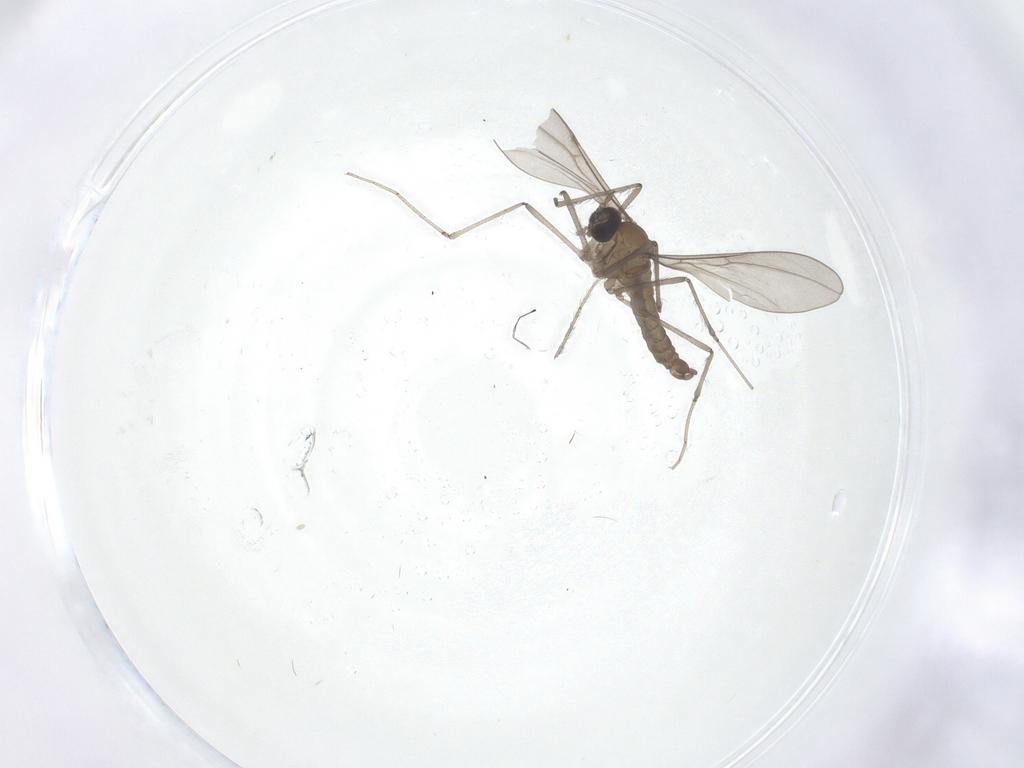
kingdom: Animalia
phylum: Arthropoda
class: Insecta
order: Diptera
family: Cecidomyiidae
